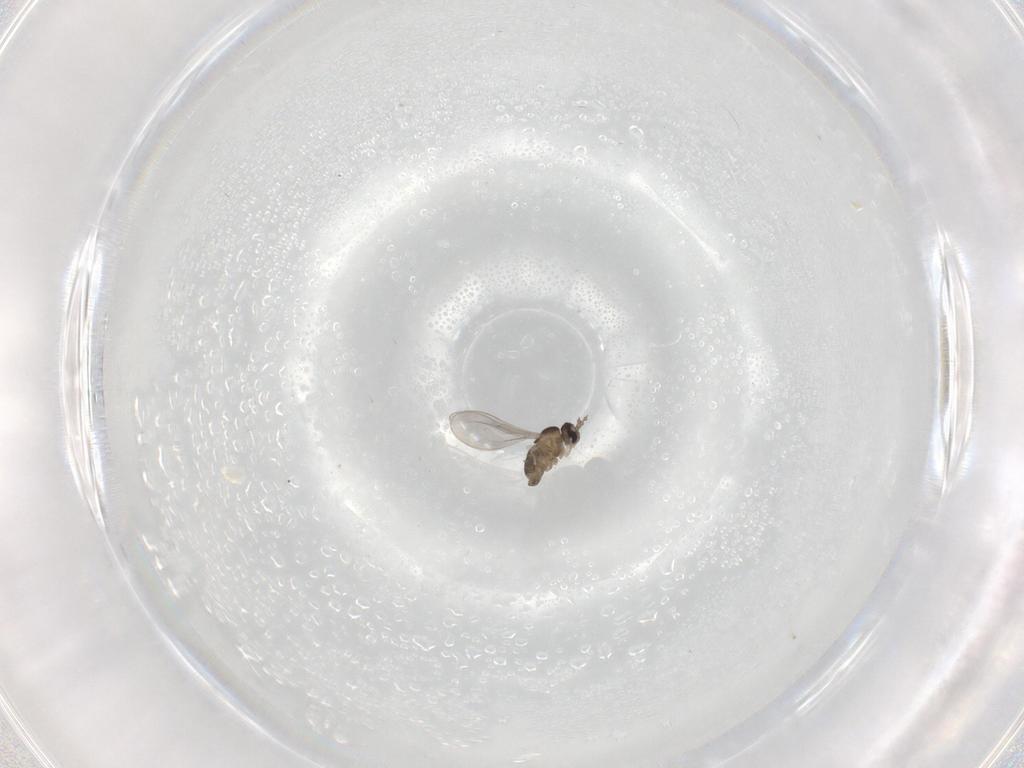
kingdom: Animalia
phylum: Arthropoda
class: Insecta
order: Diptera
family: Cecidomyiidae
